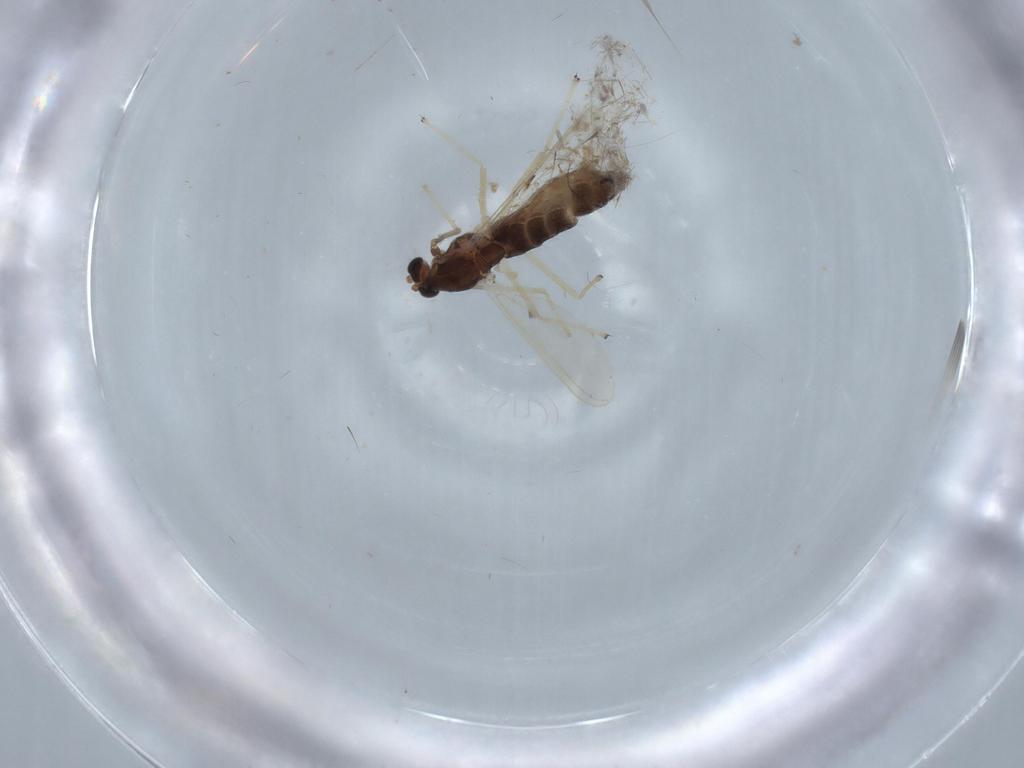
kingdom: Animalia
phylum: Arthropoda
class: Insecta
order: Diptera
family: Chironomidae
